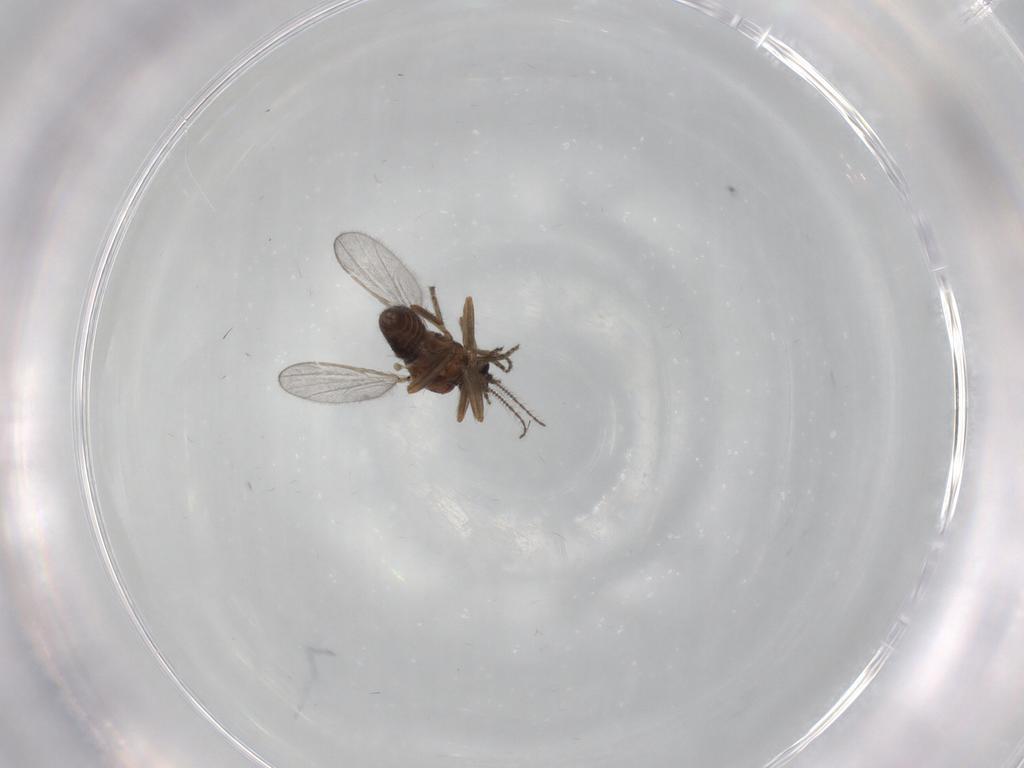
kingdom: Animalia
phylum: Arthropoda
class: Insecta
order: Diptera
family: Ceratopogonidae
